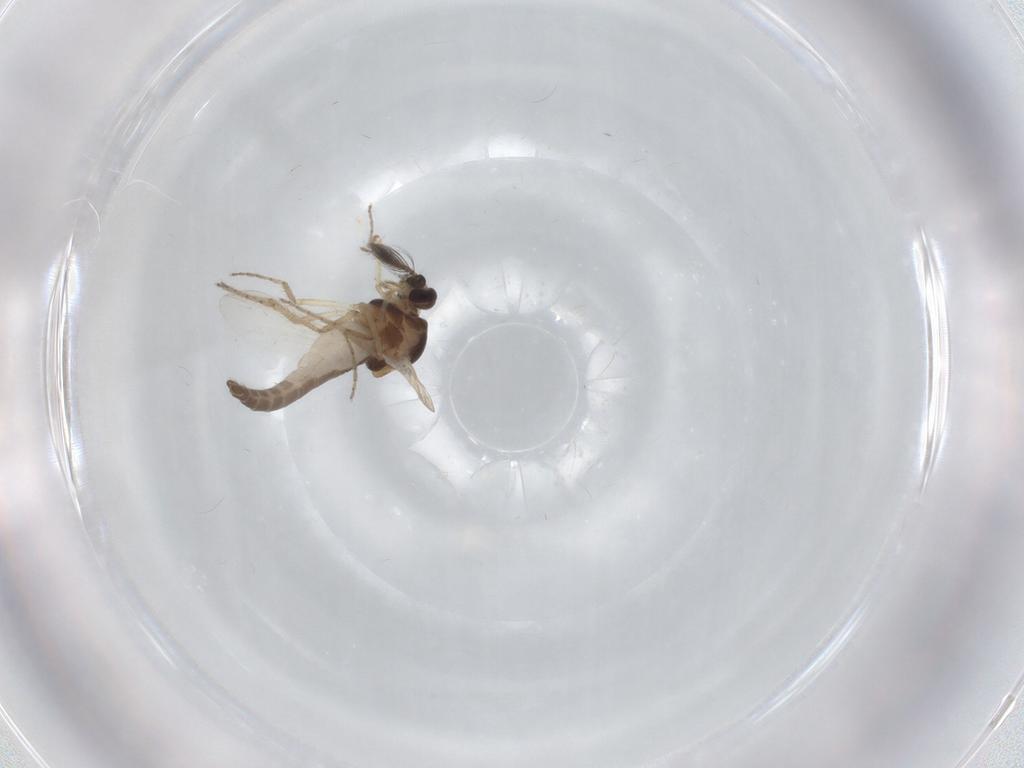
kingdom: Animalia
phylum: Arthropoda
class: Insecta
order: Diptera
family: Ceratopogonidae
